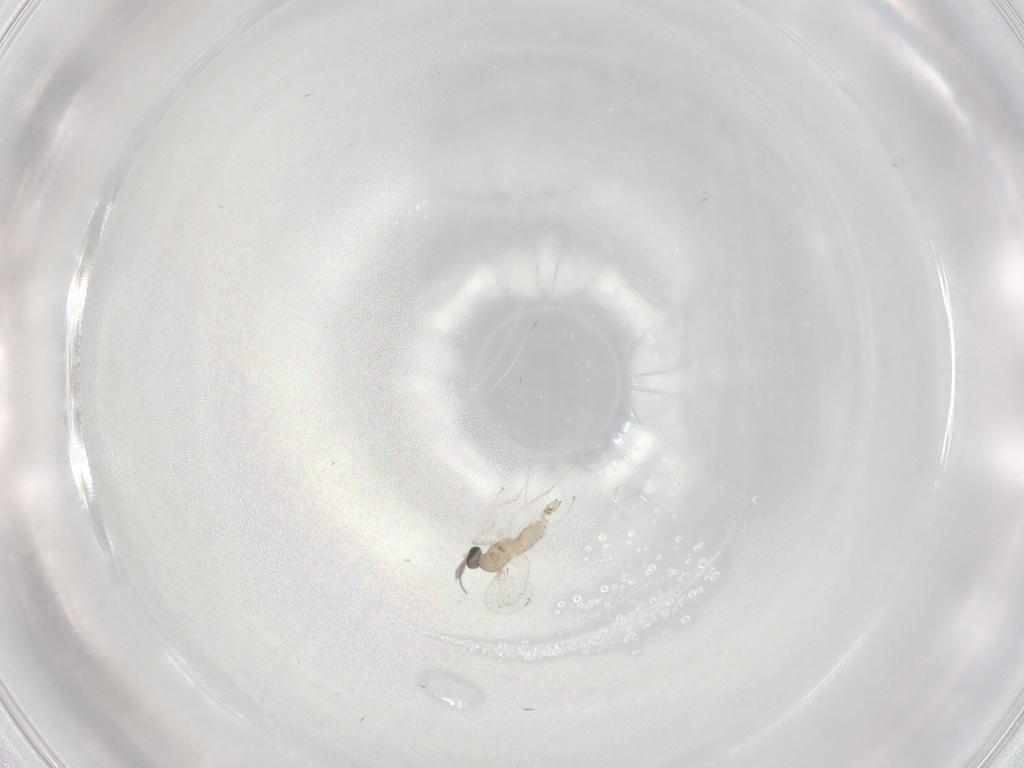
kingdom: Animalia
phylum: Arthropoda
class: Insecta
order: Diptera
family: Cecidomyiidae
